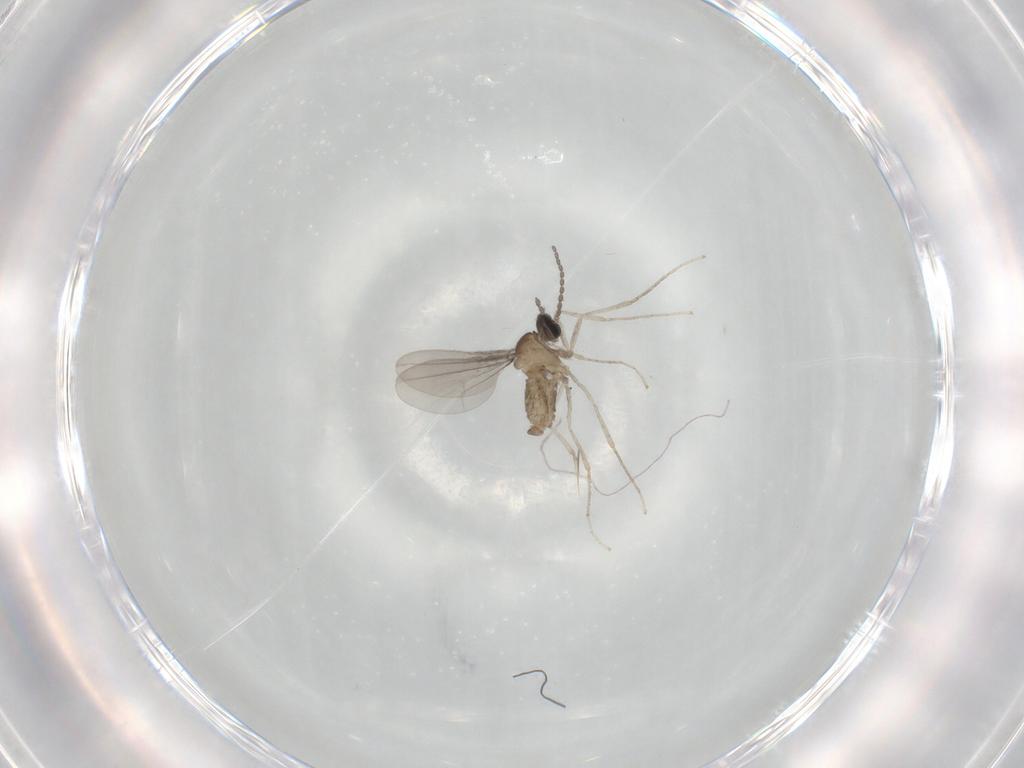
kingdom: Animalia
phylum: Arthropoda
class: Insecta
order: Diptera
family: Cecidomyiidae
